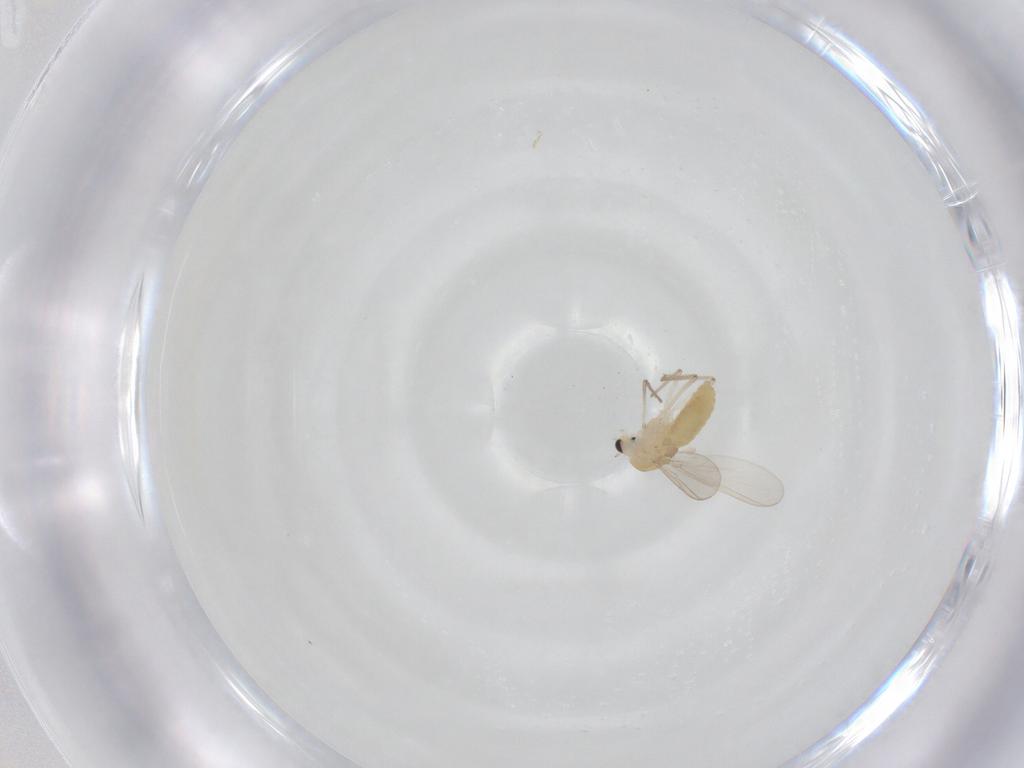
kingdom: Animalia
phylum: Arthropoda
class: Insecta
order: Diptera
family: Chironomidae
